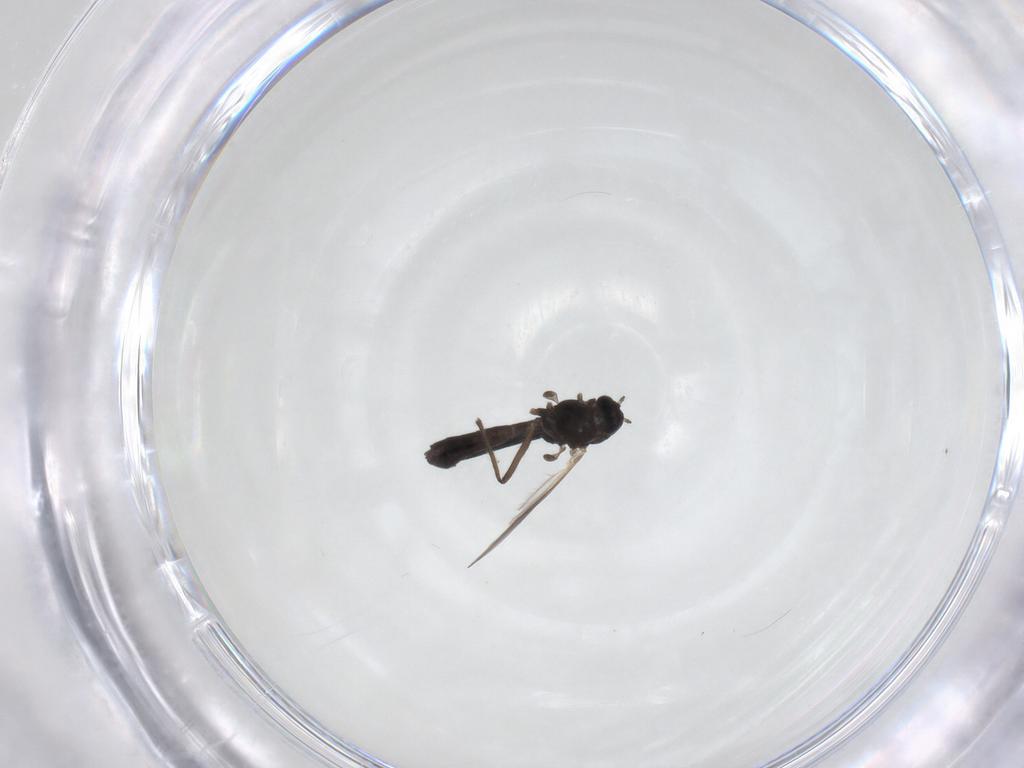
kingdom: Animalia
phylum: Arthropoda
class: Insecta
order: Diptera
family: Chironomidae
